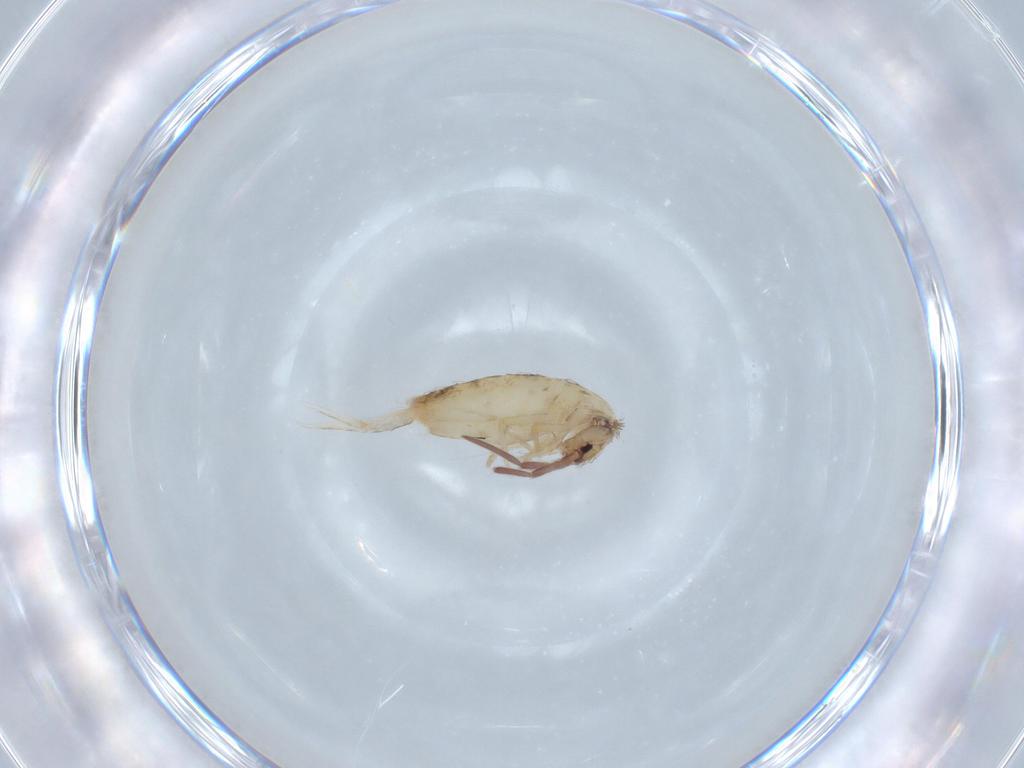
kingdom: Animalia
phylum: Arthropoda
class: Collembola
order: Entomobryomorpha
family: Entomobryidae
